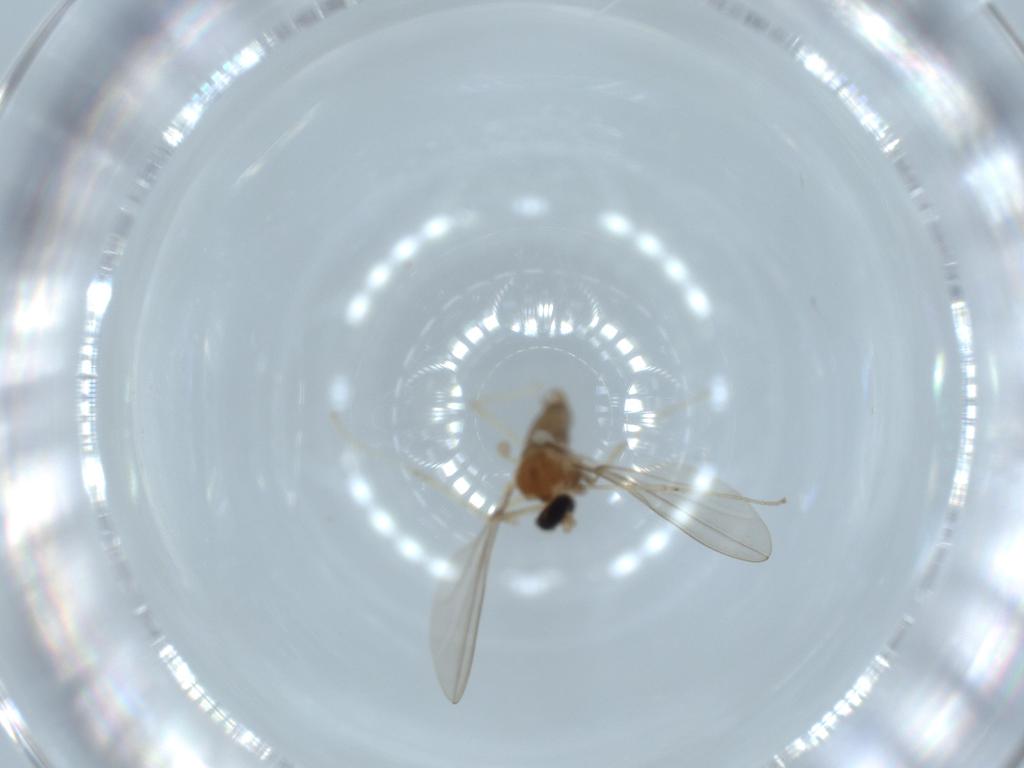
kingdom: Animalia
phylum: Arthropoda
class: Insecta
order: Diptera
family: Cecidomyiidae
